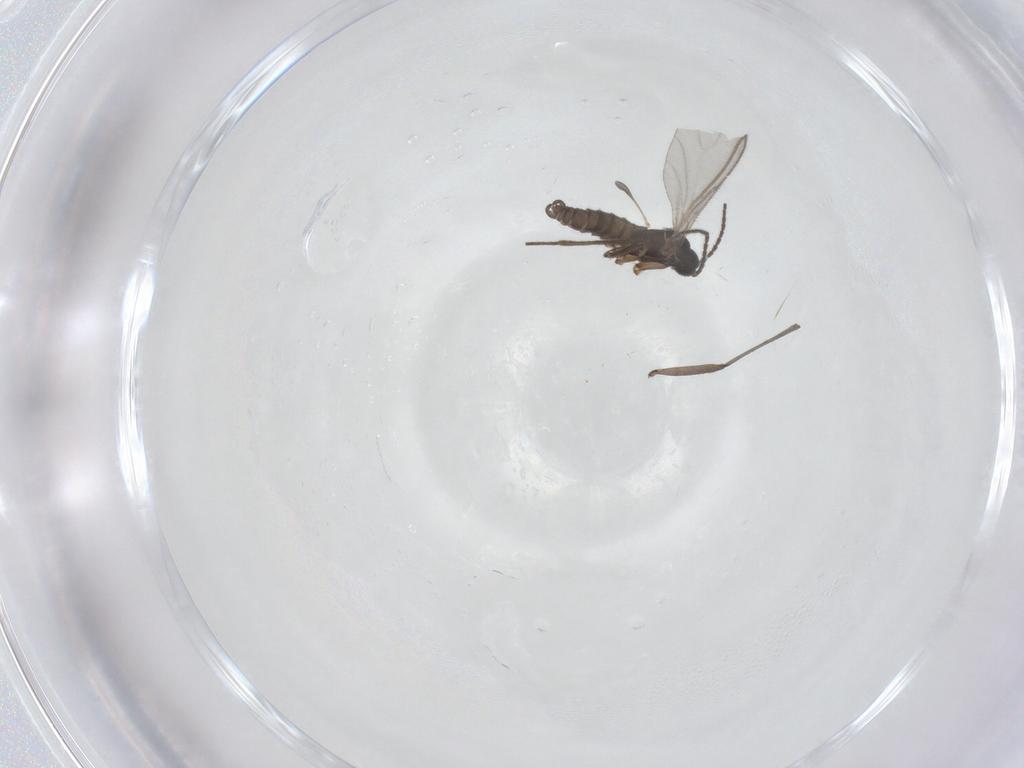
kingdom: Animalia
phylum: Arthropoda
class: Insecta
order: Diptera
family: Sciaridae
